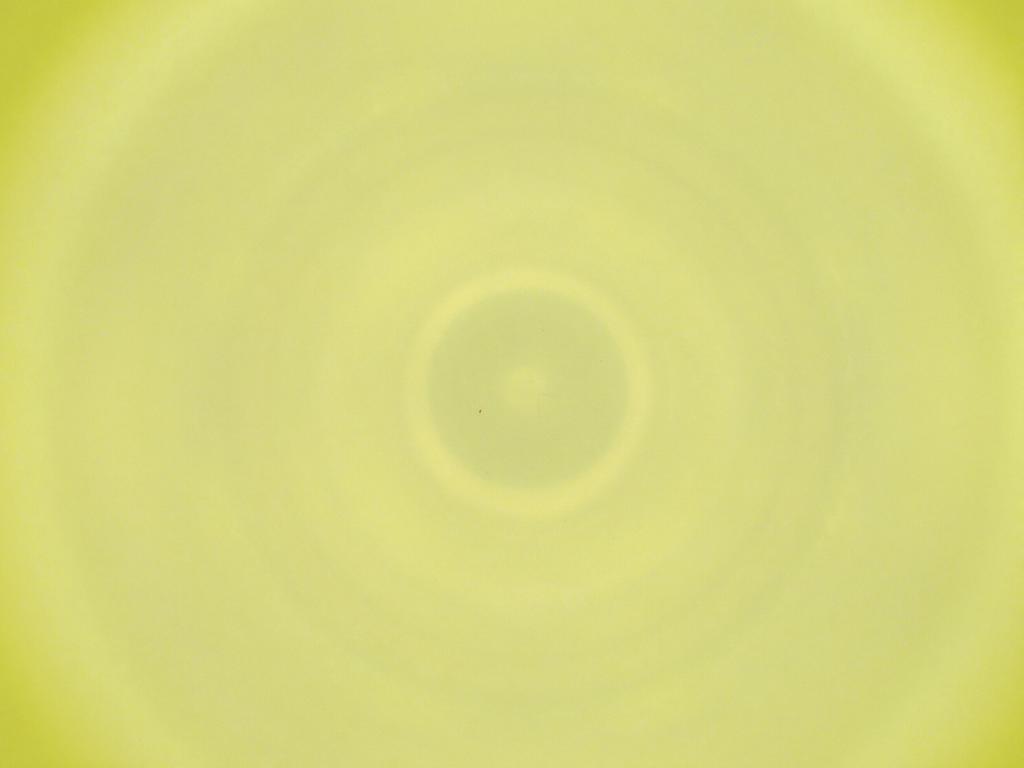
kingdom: Animalia
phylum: Arthropoda
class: Insecta
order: Diptera
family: Cecidomyiidae
